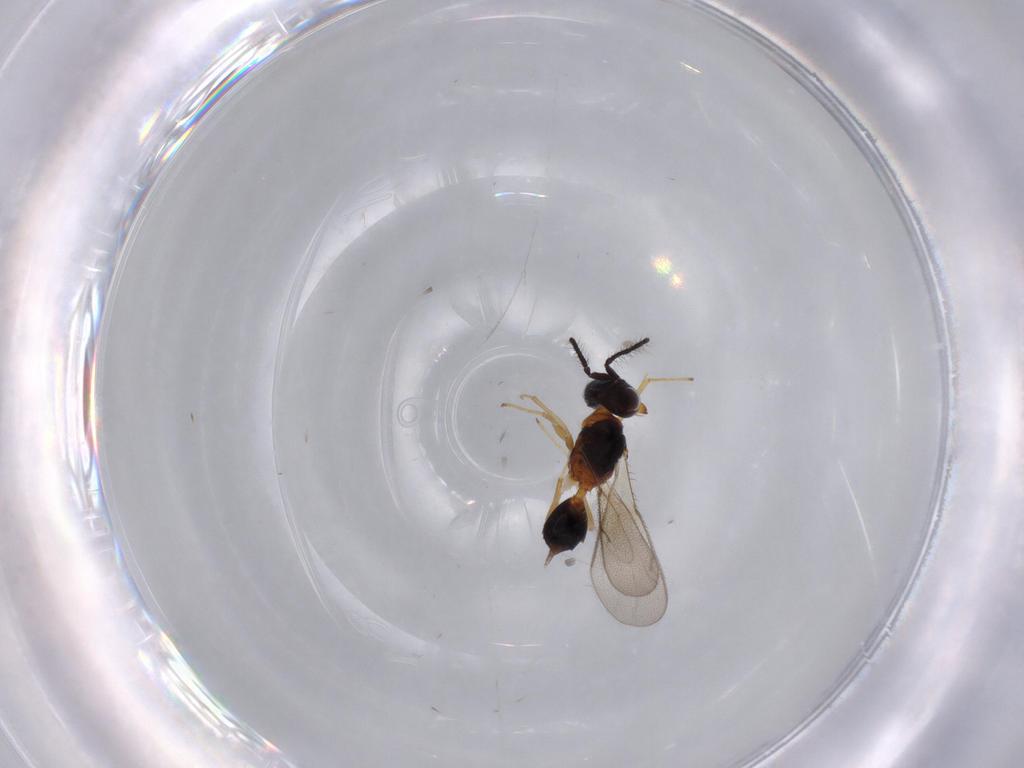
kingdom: Animalia
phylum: Arthropoda
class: Insecta
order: Hymenoptera
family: Diparidae
